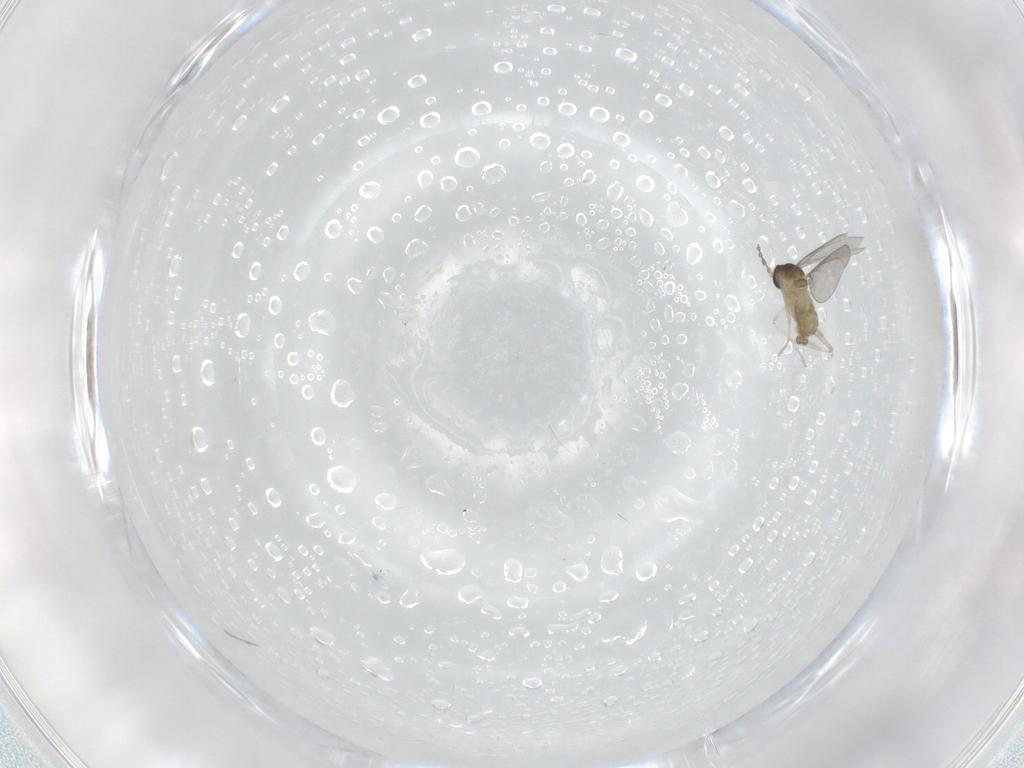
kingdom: Animalia
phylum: Arthropoda
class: Insecta
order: Diptera
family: Cecidomyiidae
